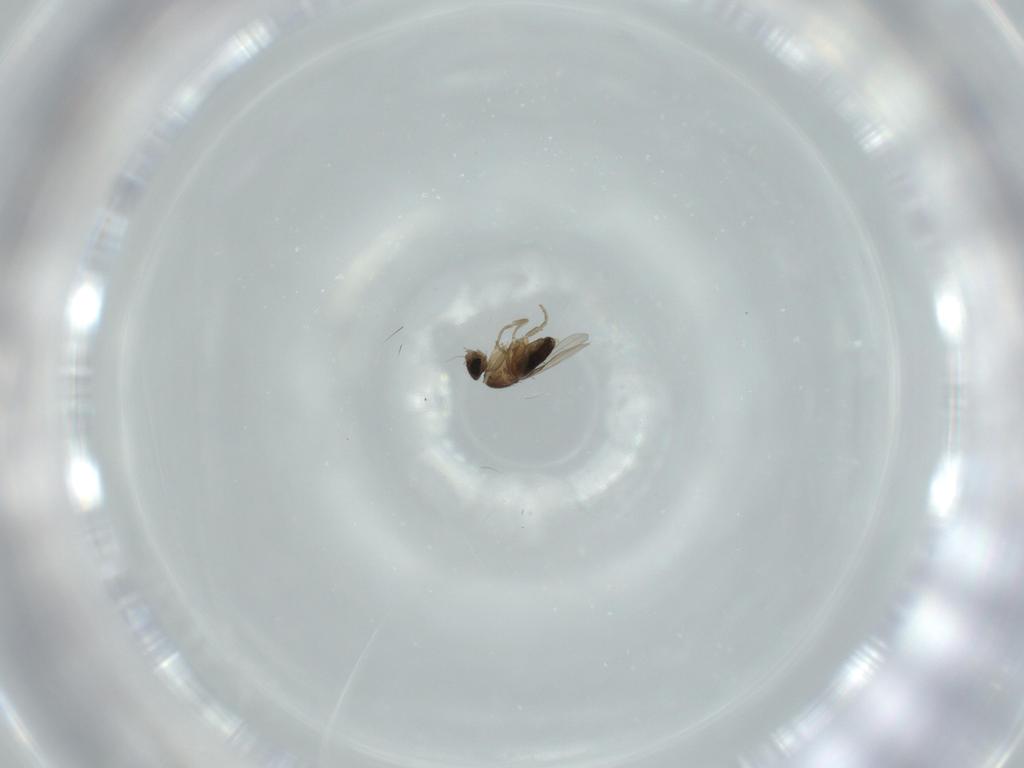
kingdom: Animalia
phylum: Arthropoda
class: Insecta
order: Diptera
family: Phoridae
